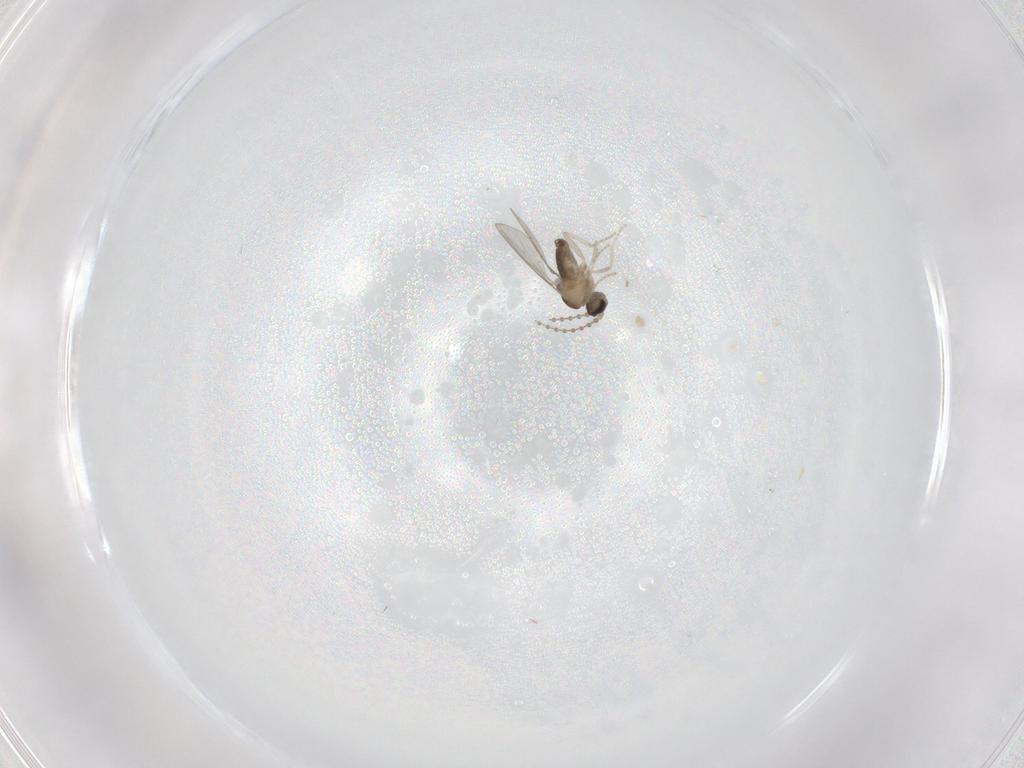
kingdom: Animalia
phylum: Arthropoda
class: Insecta
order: Diptera
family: Cecidomyiidae
